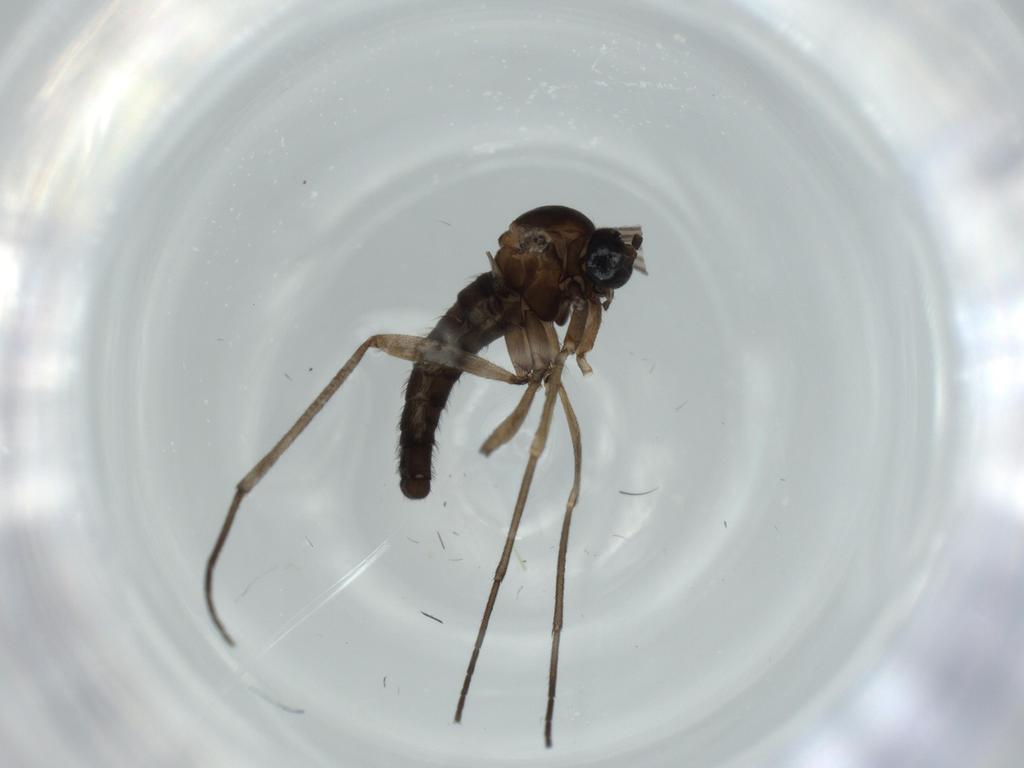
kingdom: Animalia
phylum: Arthropoda
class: Insecta
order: Diptera
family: Sciaridae
